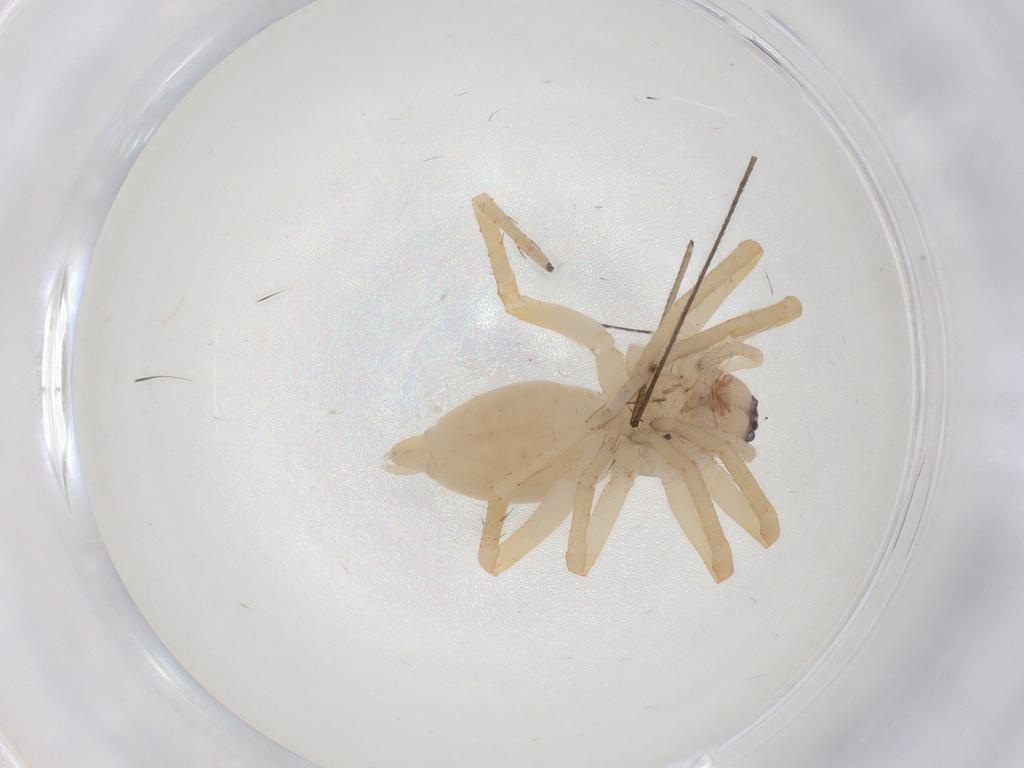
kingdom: Animalia
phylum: Arthropoda
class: Insecta
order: Diptera
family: Limoniidae
